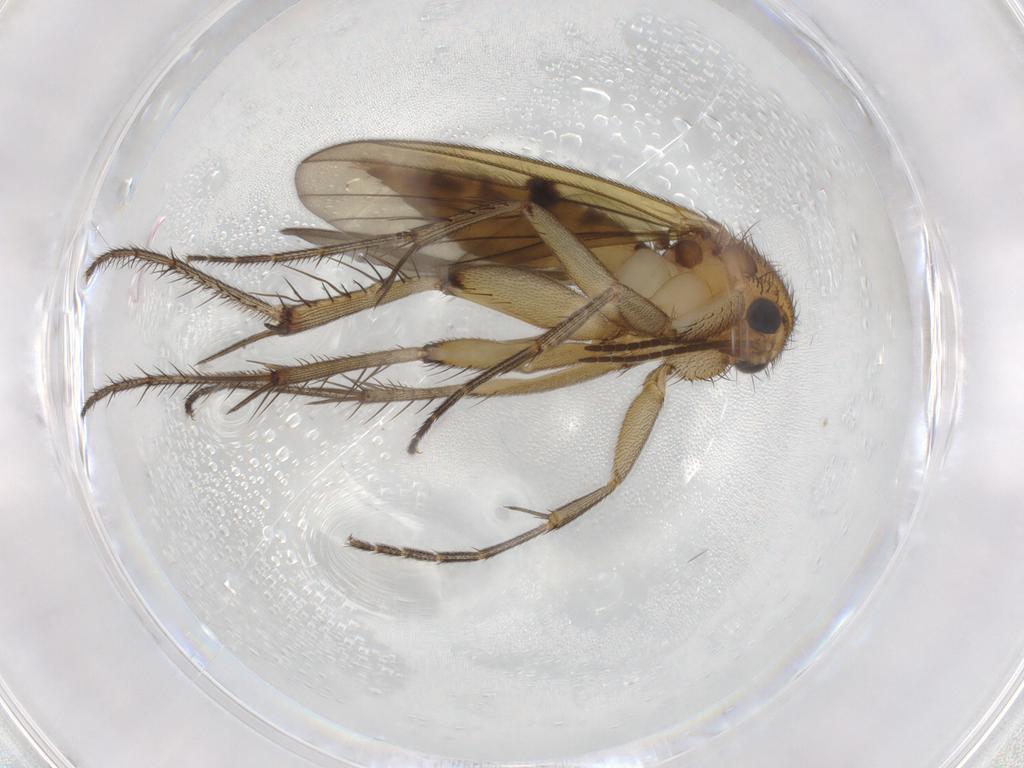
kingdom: Animalia
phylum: Arthropoda
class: Insecta
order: Diptera
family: Mycetophilidae
